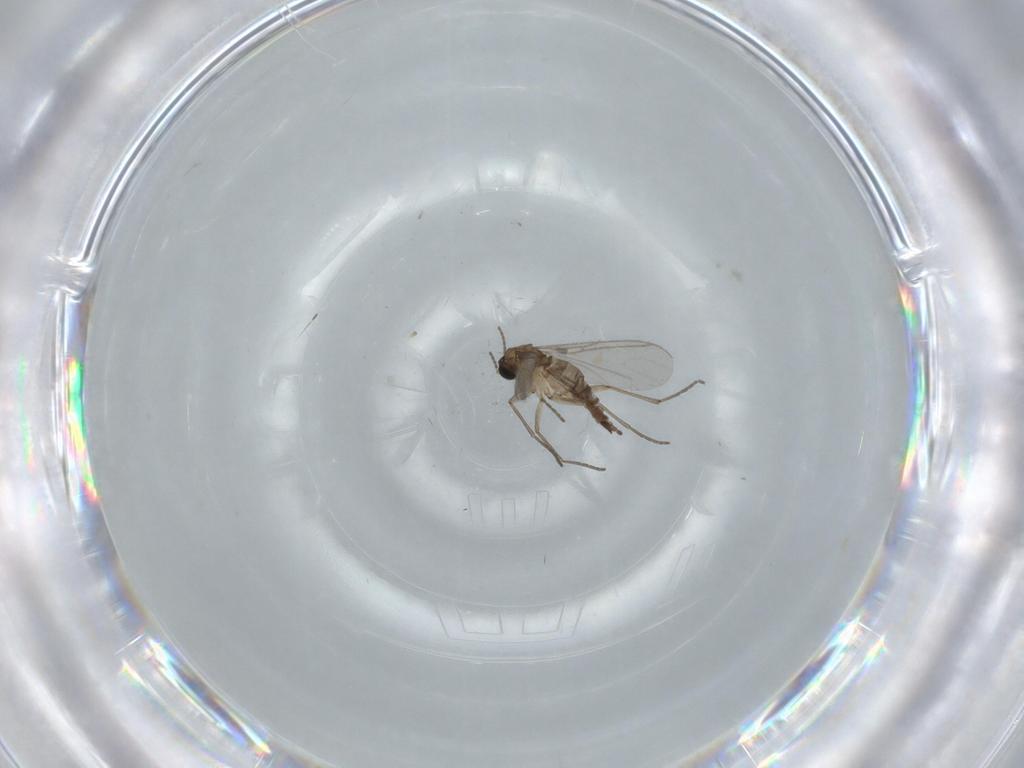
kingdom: Animalia
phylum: Arthropoda
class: Insecta
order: Diptera
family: Sciaridae
